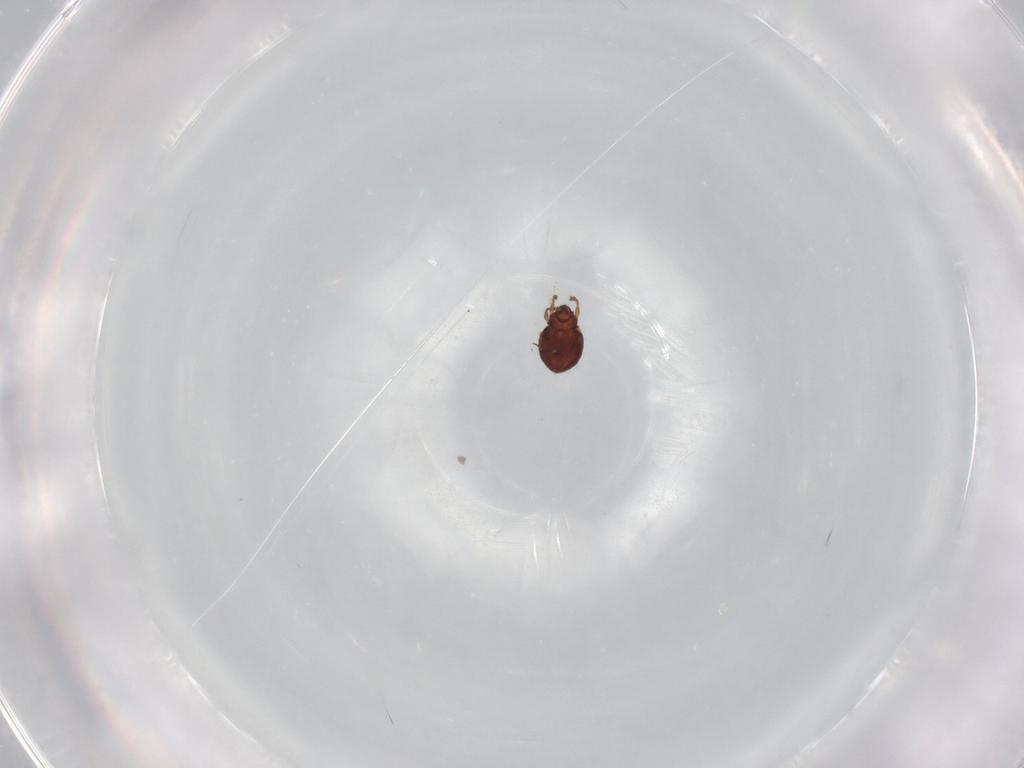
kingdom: Animalia
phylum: Arthropoda
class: Arachnida
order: Sarcoptiformes
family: Scheloribatidae
